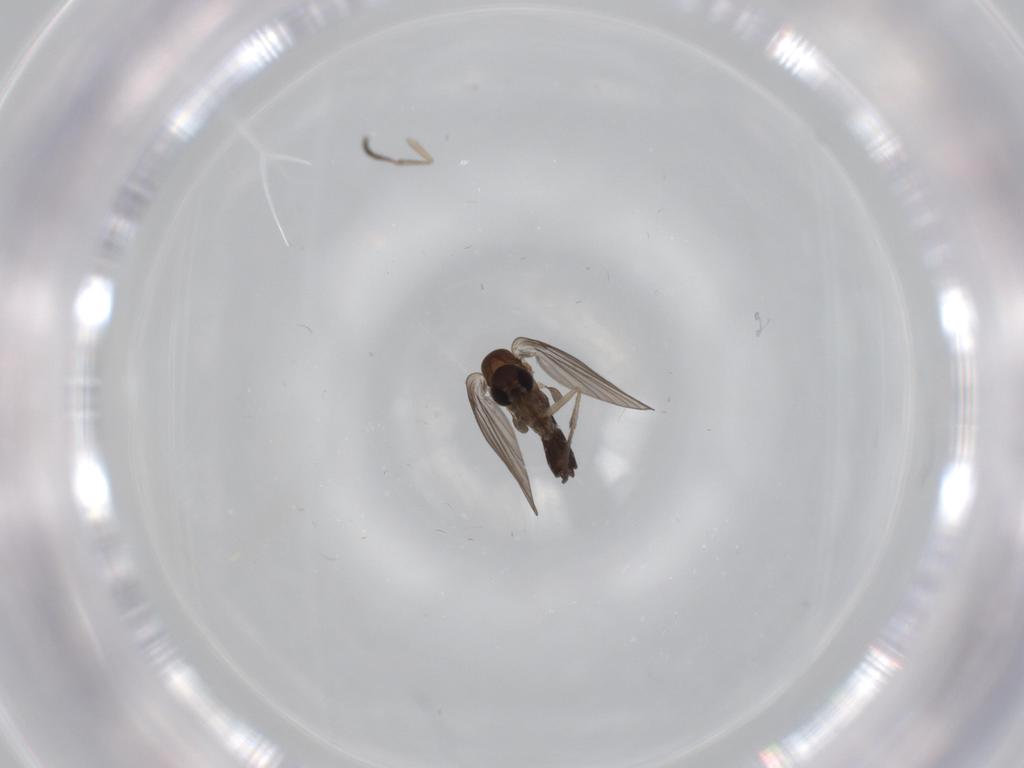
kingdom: Animalia
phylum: Arthropoda
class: Insecta
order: Diptera
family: Psychodidae
